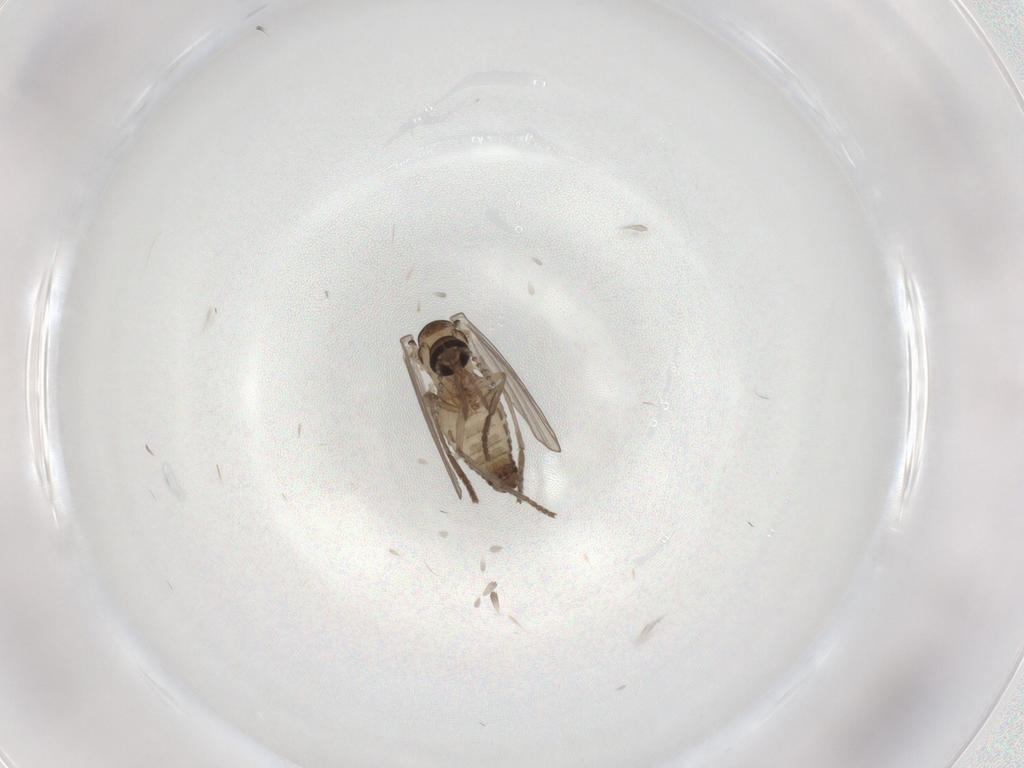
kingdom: Animalia
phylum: Arthropoda
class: Insecta
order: Diptera
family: Psychodidae
